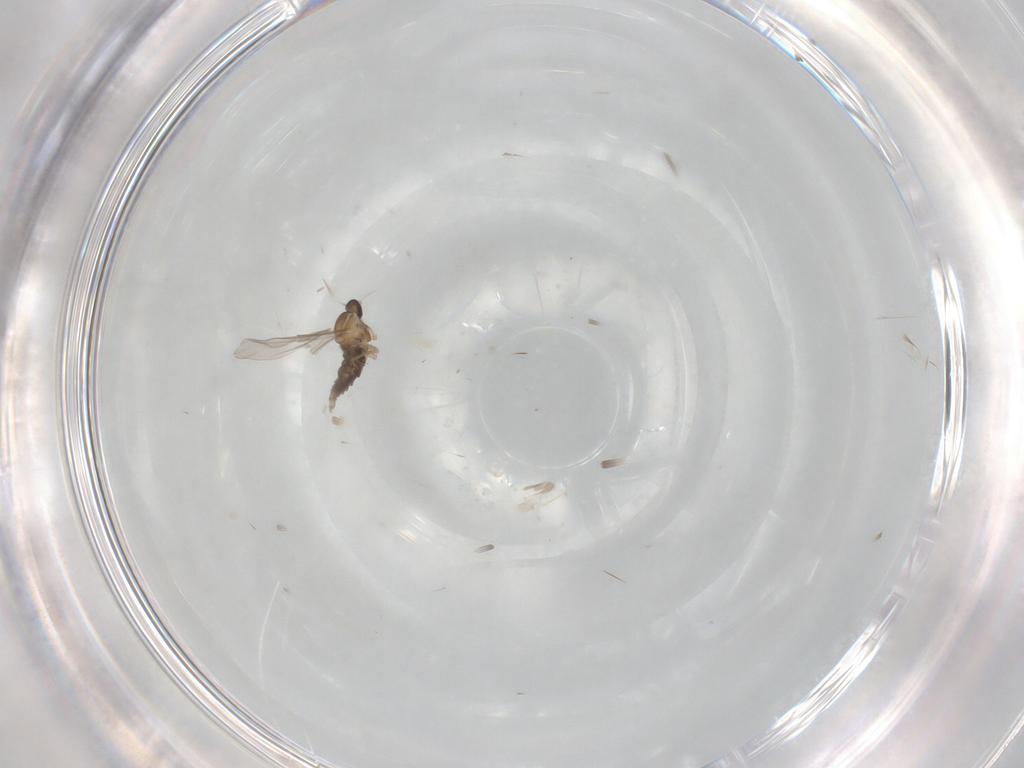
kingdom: Animalia
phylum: Arthropoda
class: Insecta
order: Diptera
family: Cecidomyiidae
